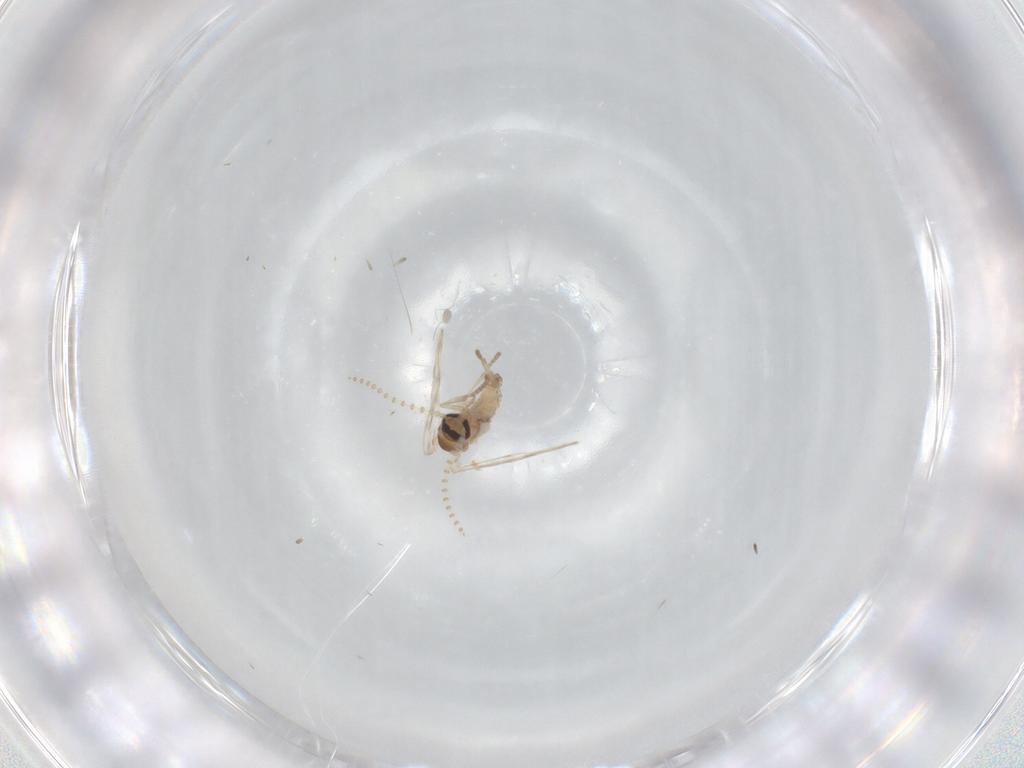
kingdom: Animalia
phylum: Arthropoda
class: Insecta
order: Diptera
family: Psychodidae
